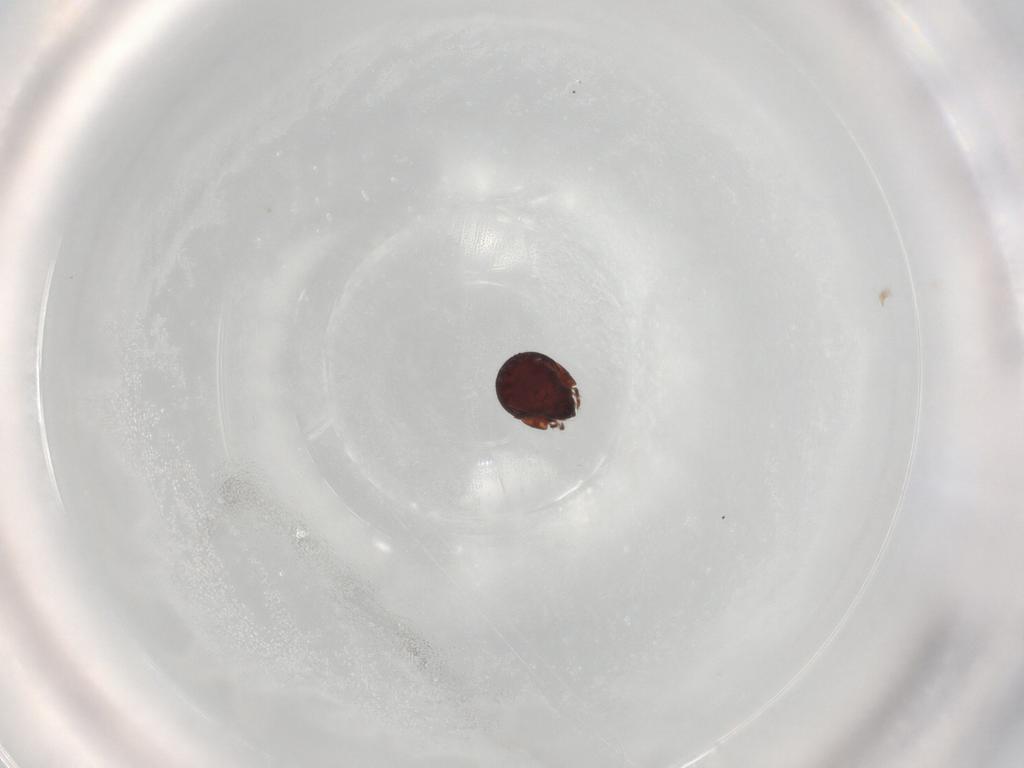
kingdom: Animalia
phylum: Arthropoda
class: Arachnida
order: Sarcoptiformes
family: Humerobatidae
